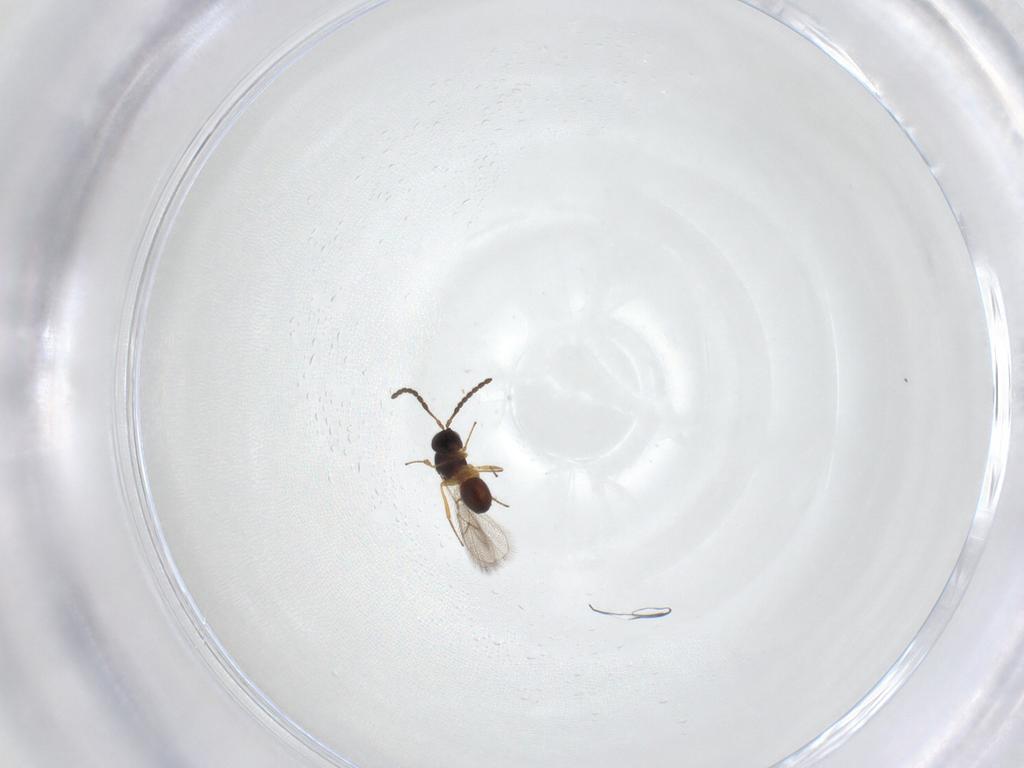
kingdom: Animalia
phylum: Arthropoda
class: Insecta
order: Hymenoptera
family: Figitidae
